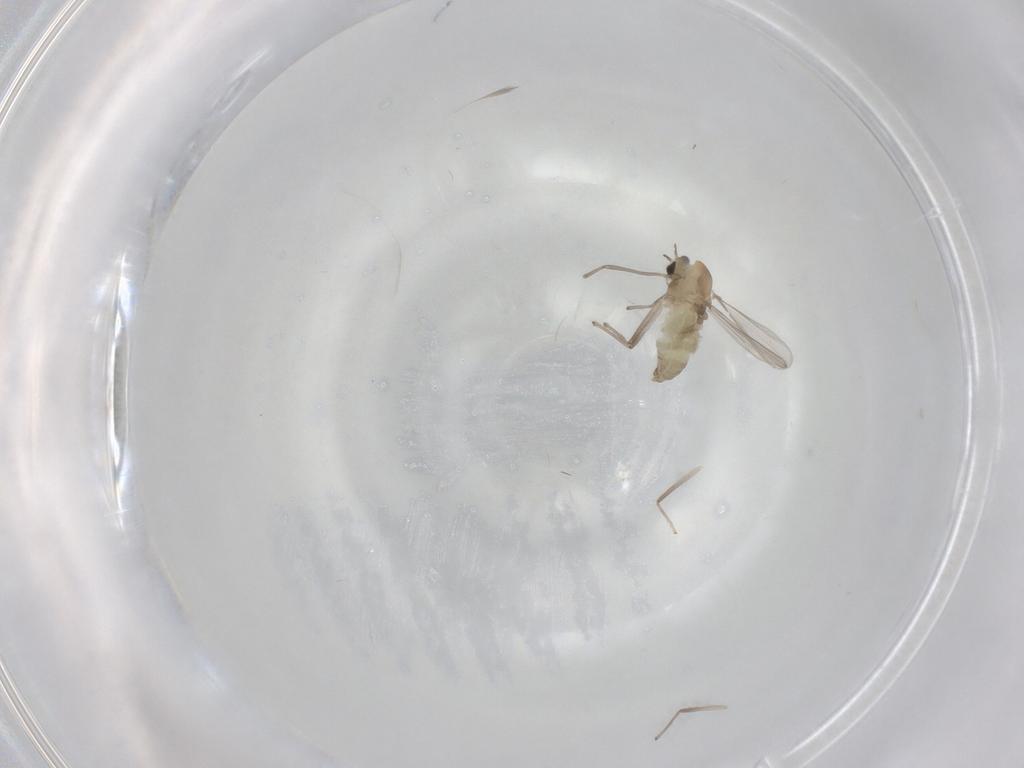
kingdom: Animalia
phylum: Arthropoda
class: Insecta
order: Diptera
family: Chironomidae
